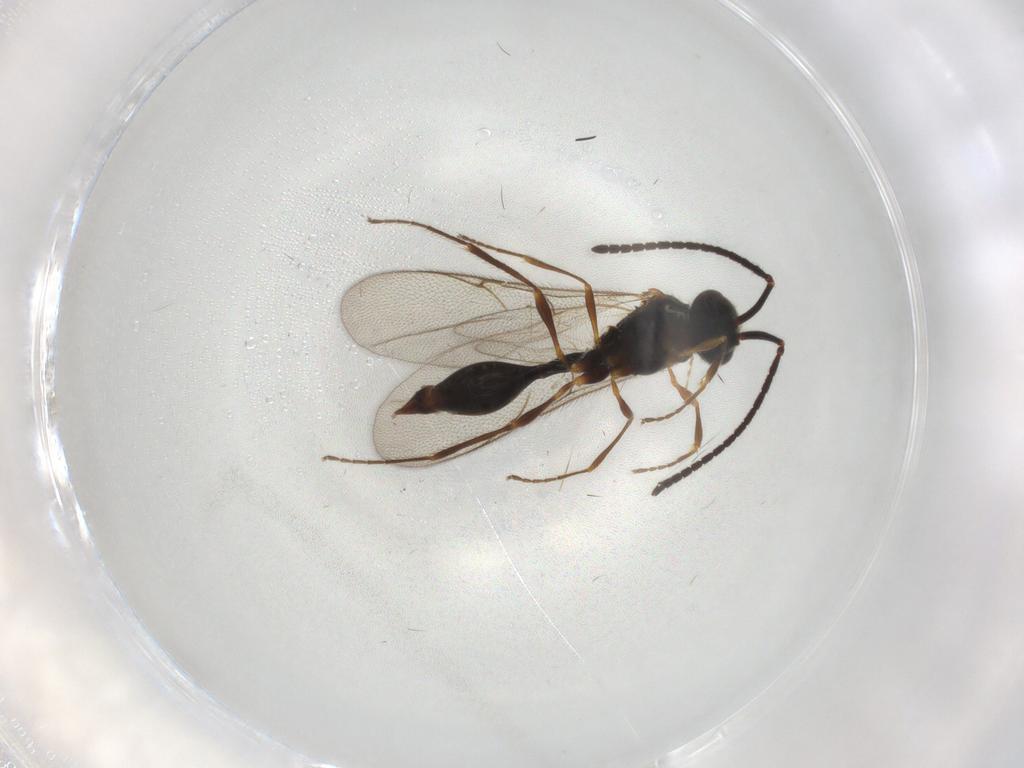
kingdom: Animalia
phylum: Arthropoda
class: Insecta
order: Hymenoptera
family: Diapriidae
